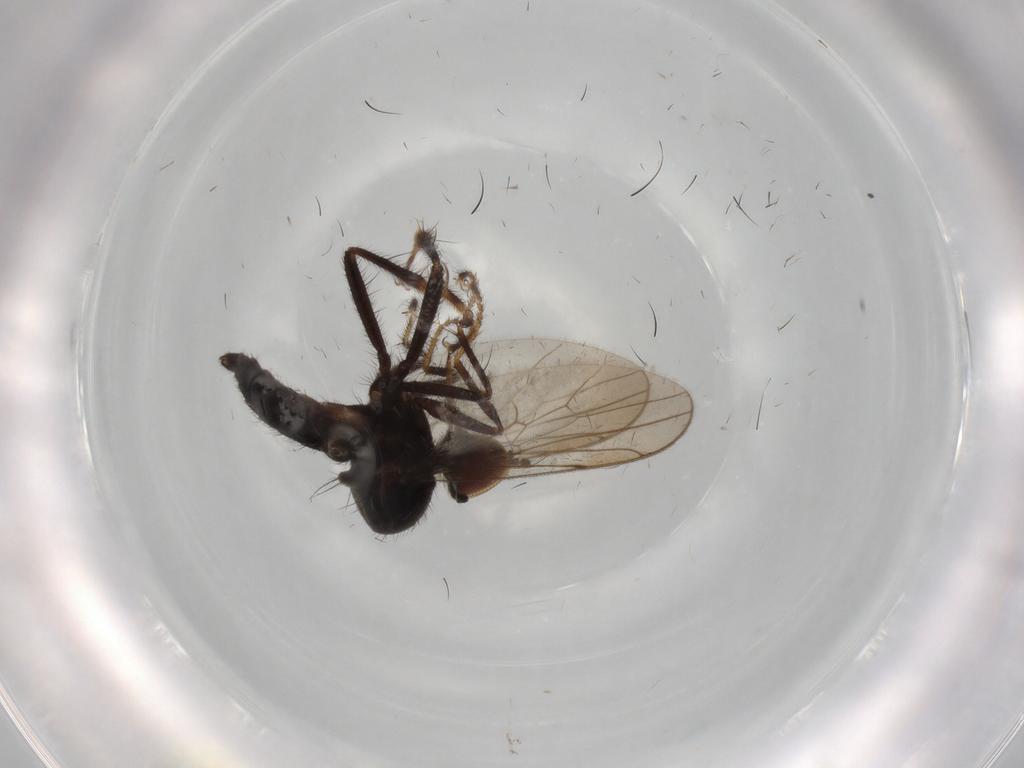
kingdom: Animalia
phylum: Arthropoda
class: Insecta
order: Diptera
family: Hybotidae
